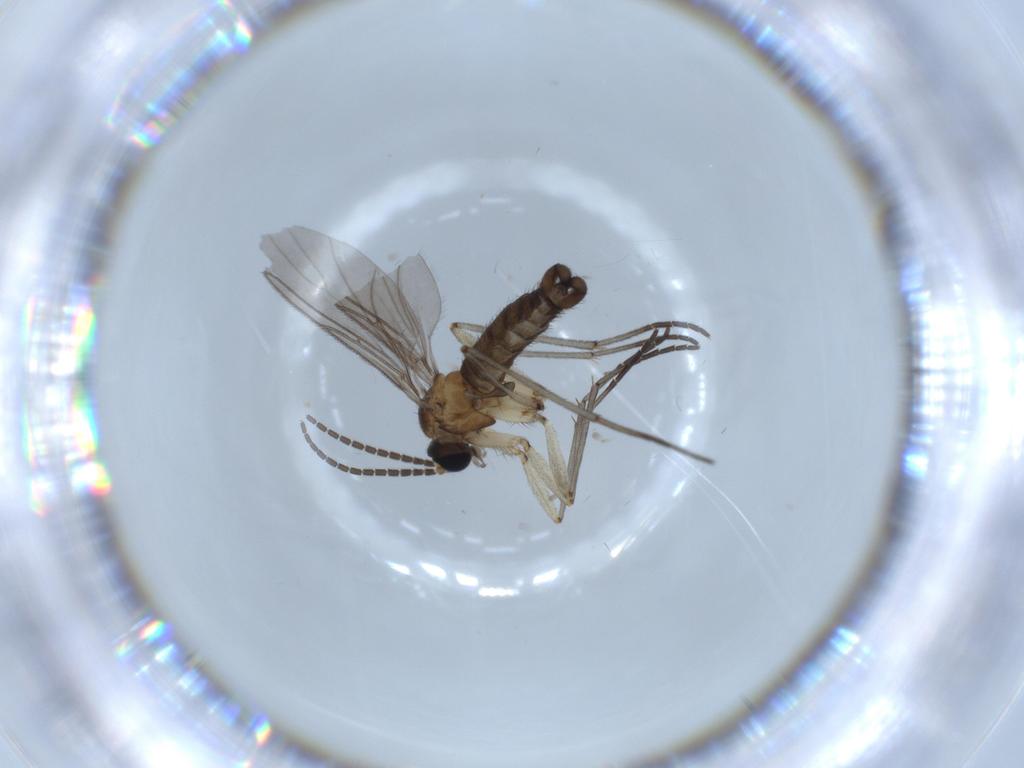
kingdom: Animalia
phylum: Arthropoda
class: Insecta
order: Diptera
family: Sciaridae
